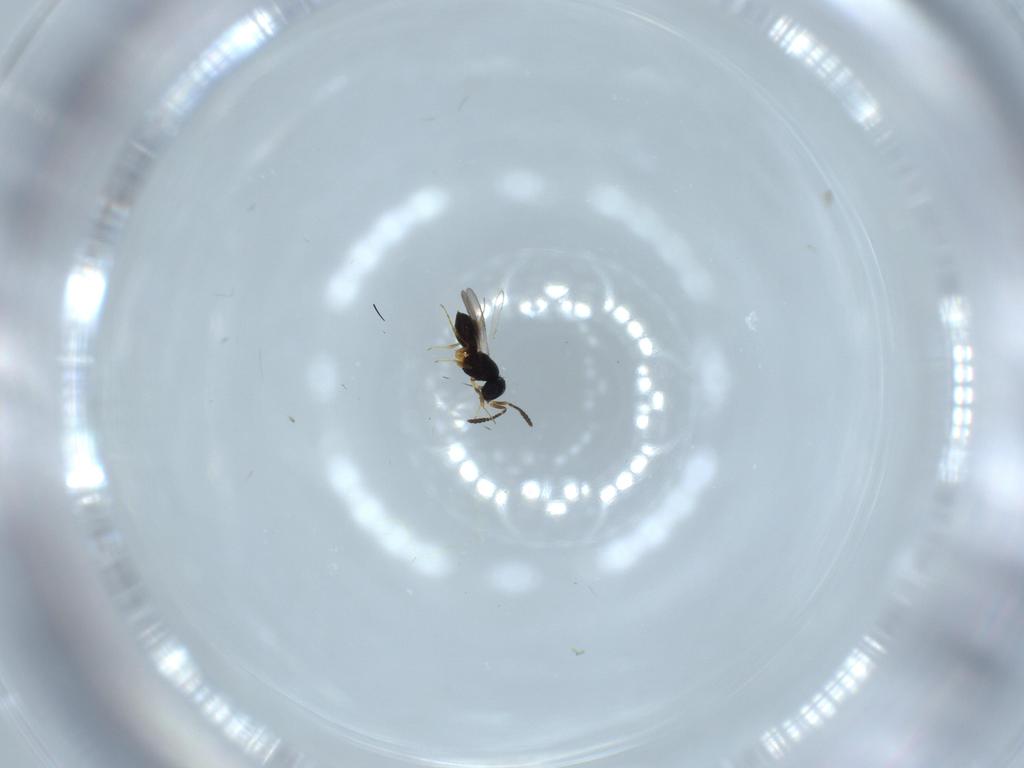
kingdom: Animalia
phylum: Arthropoda
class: Insecta
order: Hymenoptera
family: Scelionidae
